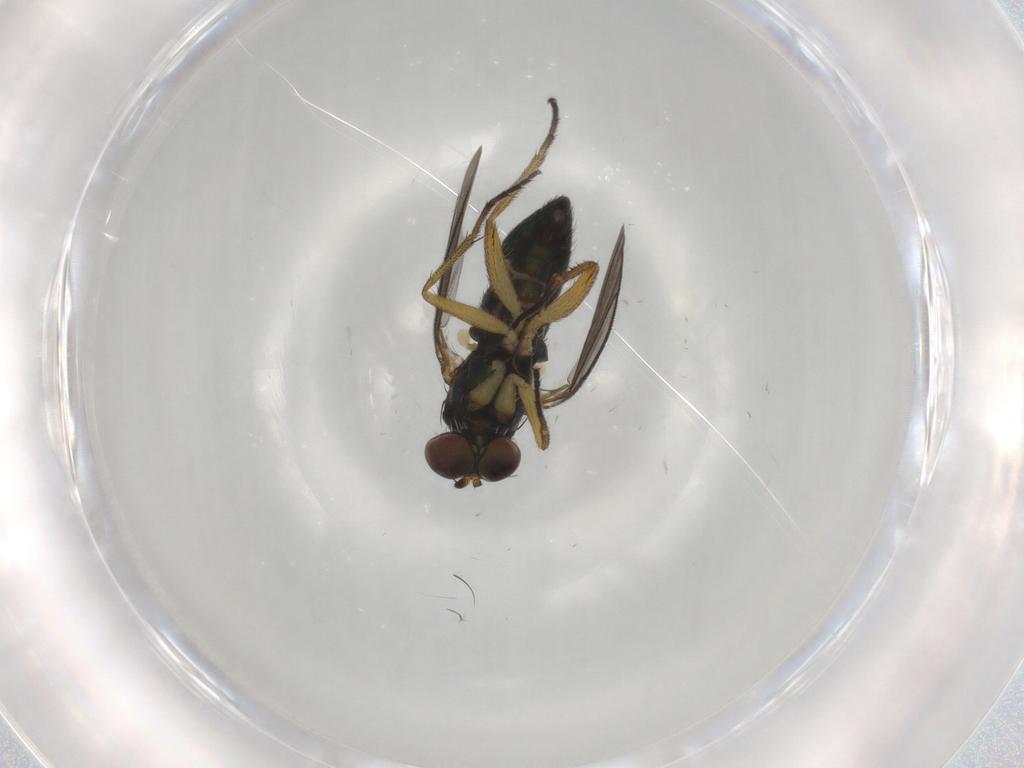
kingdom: Animalia
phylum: Arthropoda
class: Insecta
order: Diptera
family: Dolichopodidae
